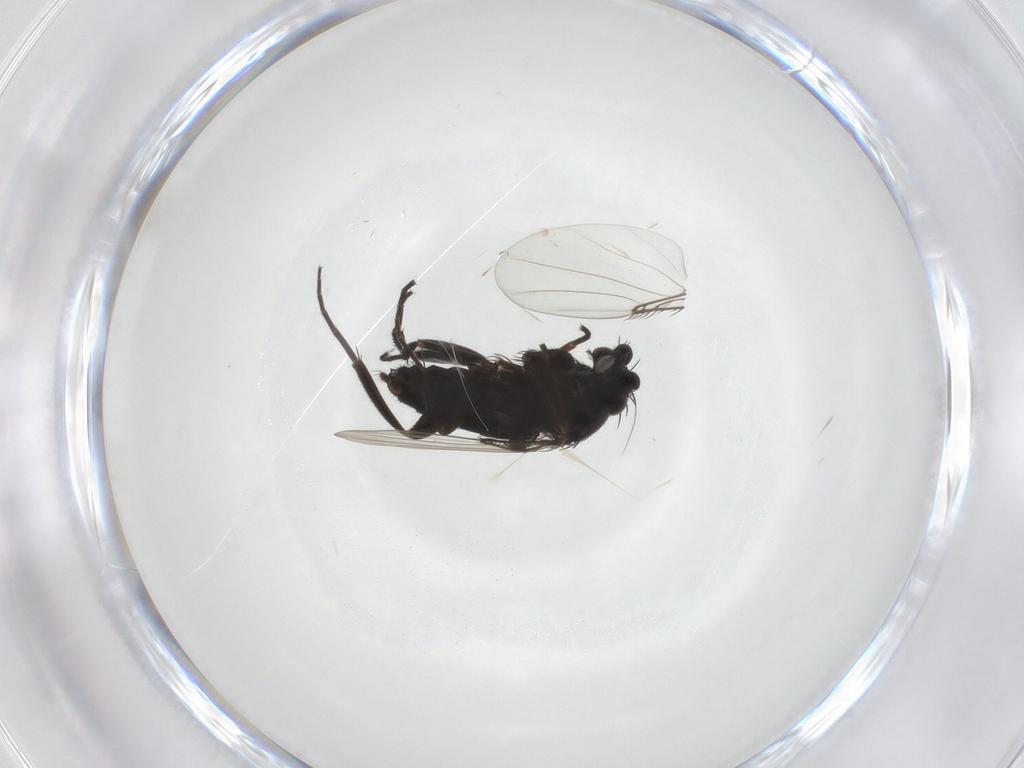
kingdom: Animalia
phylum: Arthropoda
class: Insecta
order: Diptera
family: Phoridae
